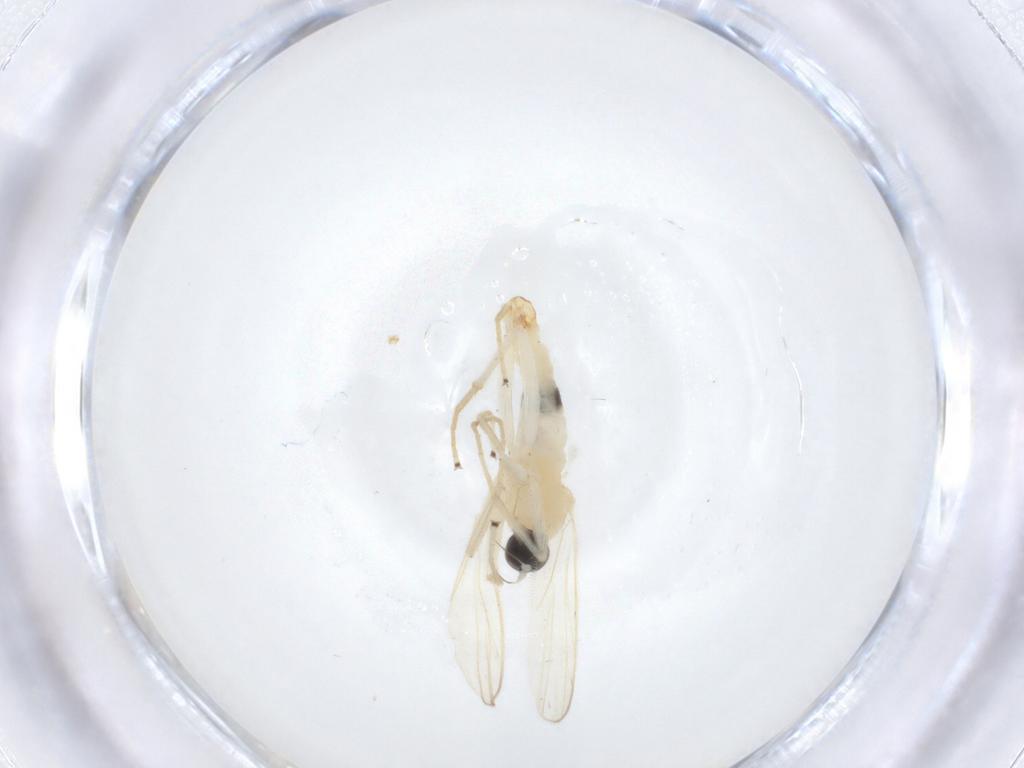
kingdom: Animalia
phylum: Arthropoda
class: Insecta
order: Diptera
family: Hybotidae
